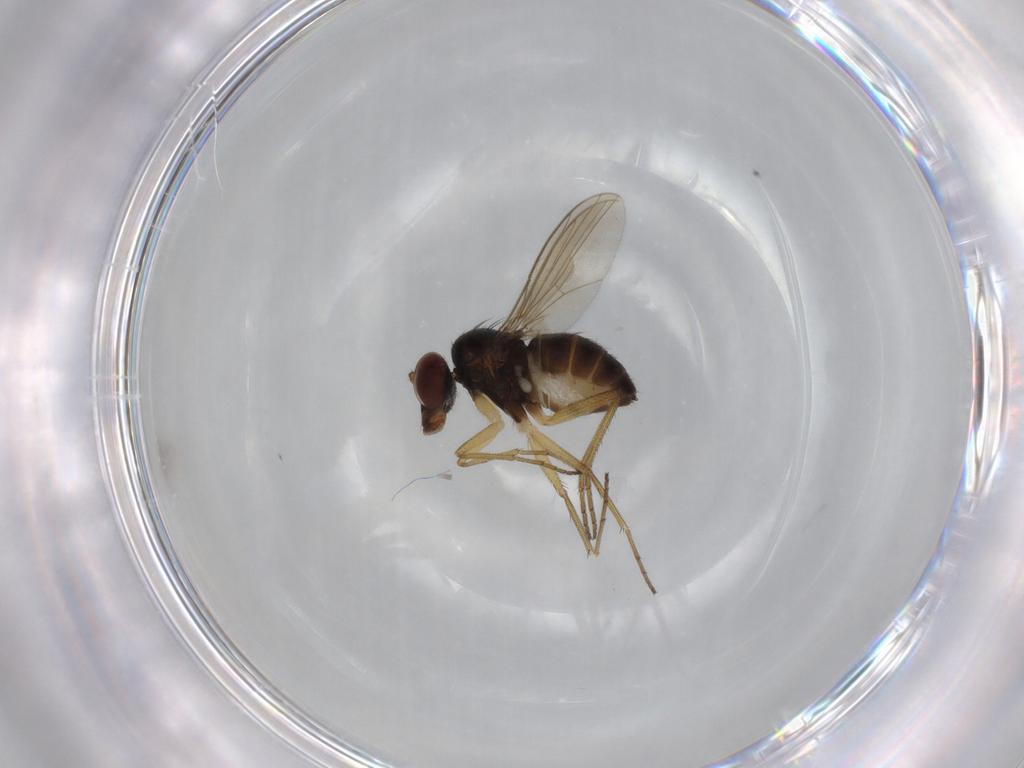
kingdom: Animalia
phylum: Arthropoda
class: Insecta
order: Diptera
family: Dolichopodidae
